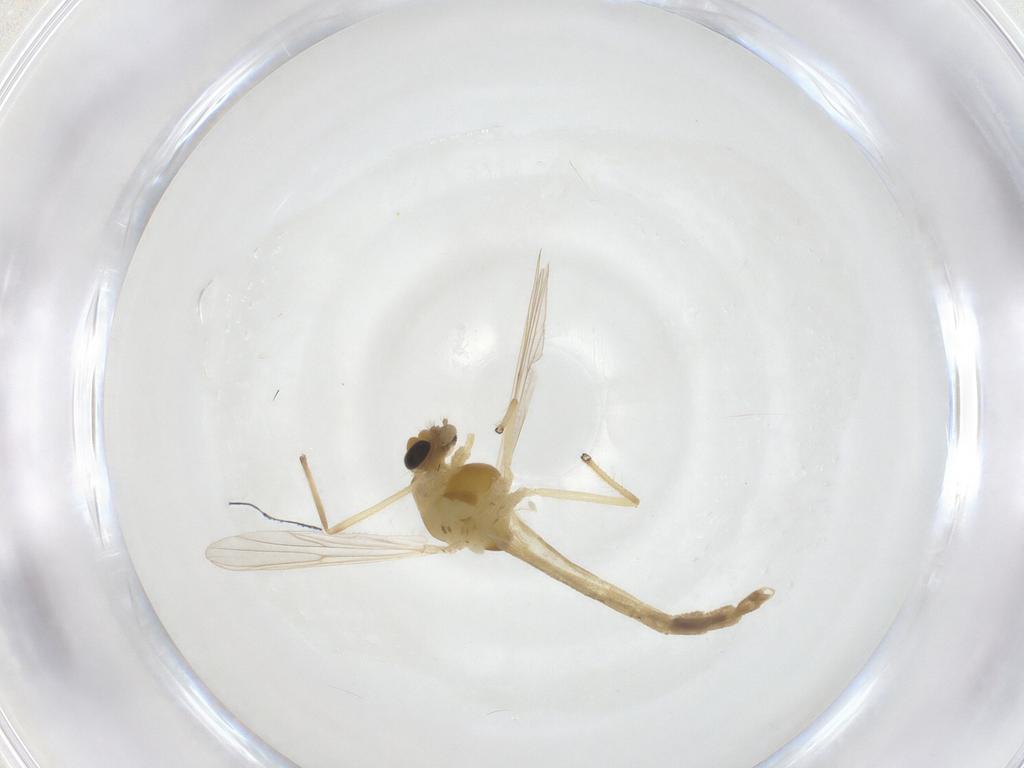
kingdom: Animalia
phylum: Arthropoda
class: Insecta
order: Diptera
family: Chironomidae
